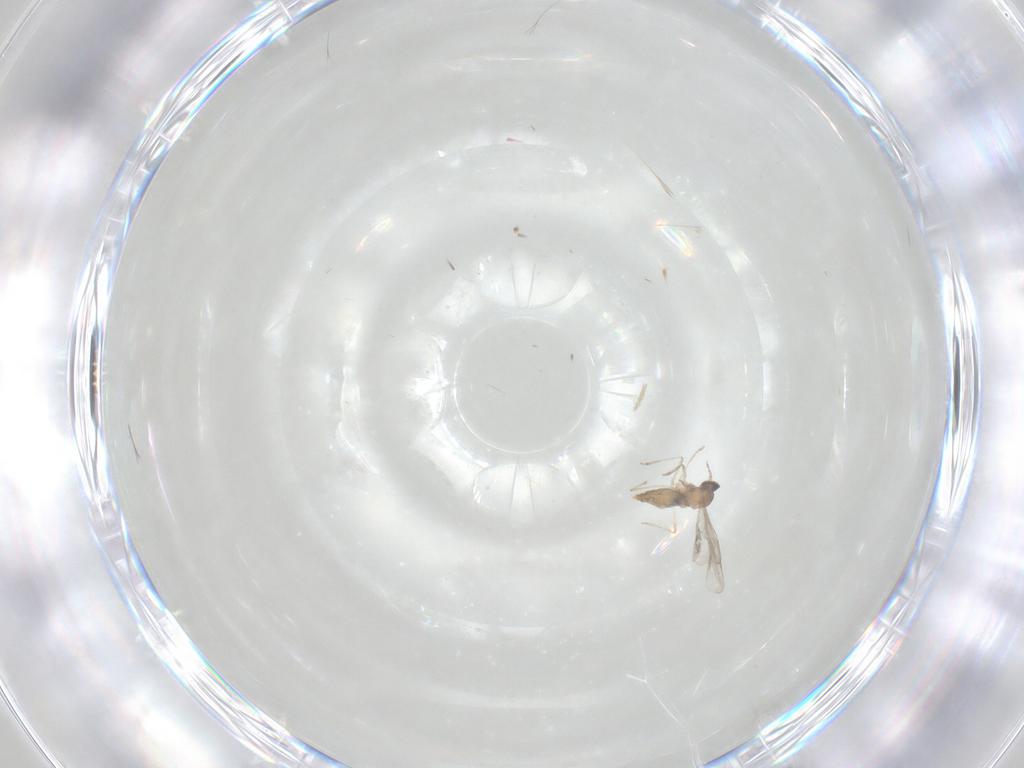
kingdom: Animalia
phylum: Arthropoda
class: Insecta
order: Diptera
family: Cecidomyiidae
